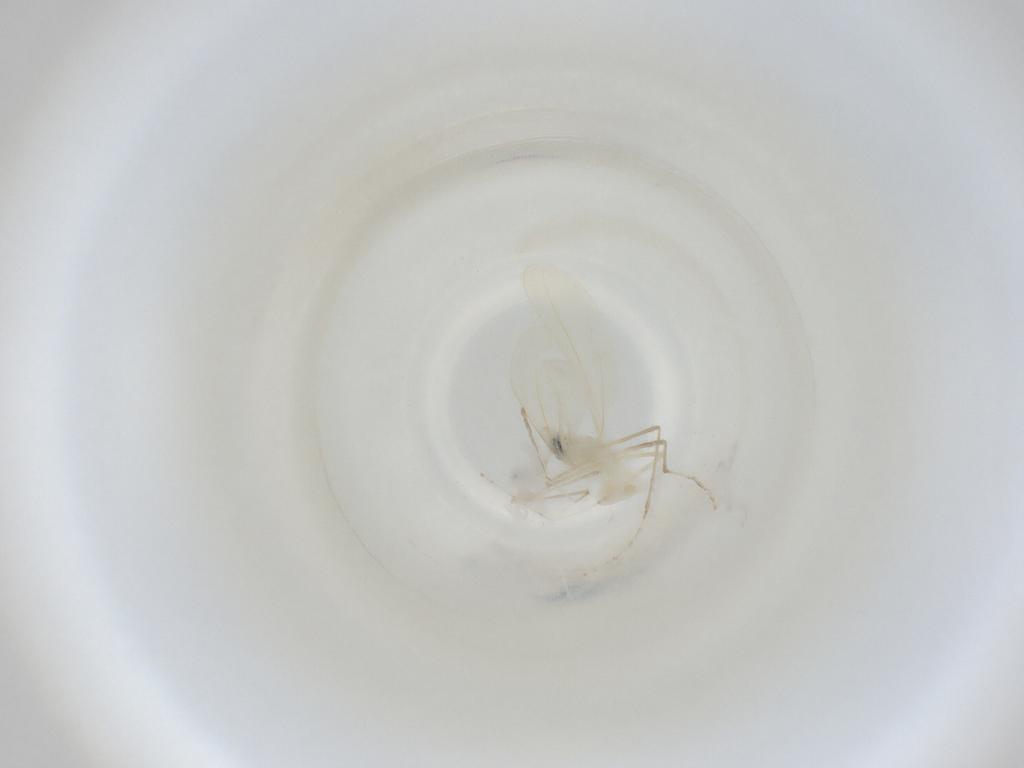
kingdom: Animalia
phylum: Arthropoda
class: Insecta
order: Diptera
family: Cecidomyiidae
